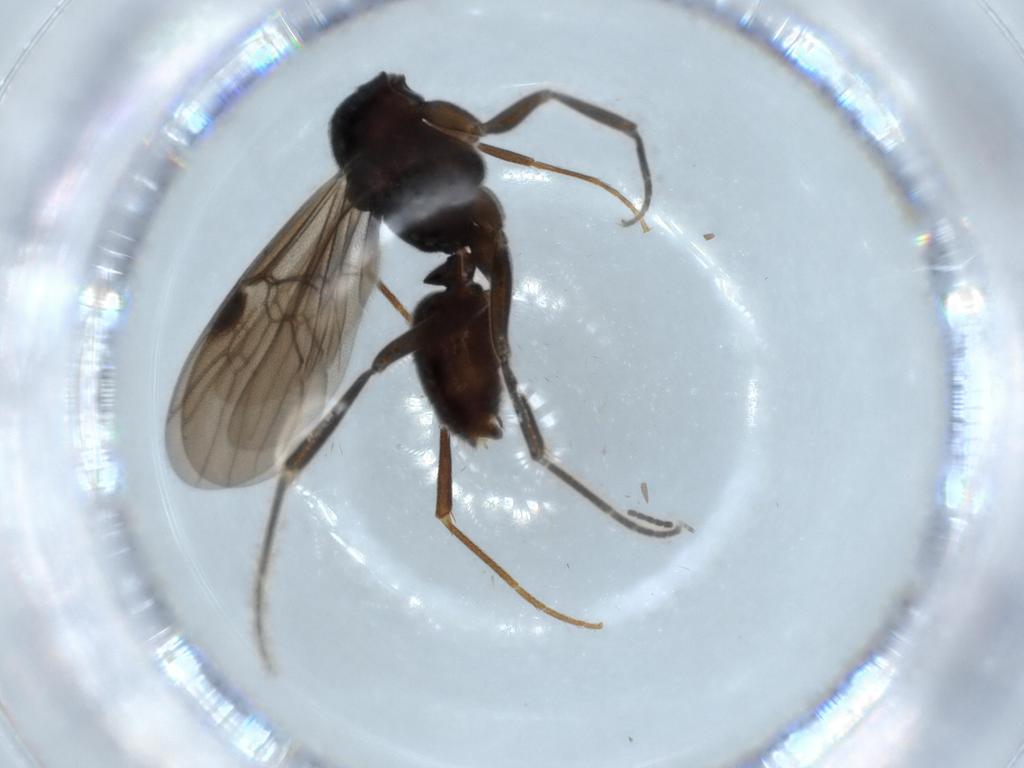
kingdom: Animalia
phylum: Arthropoda
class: Insecta
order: Hymenoptera
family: Formicidae
